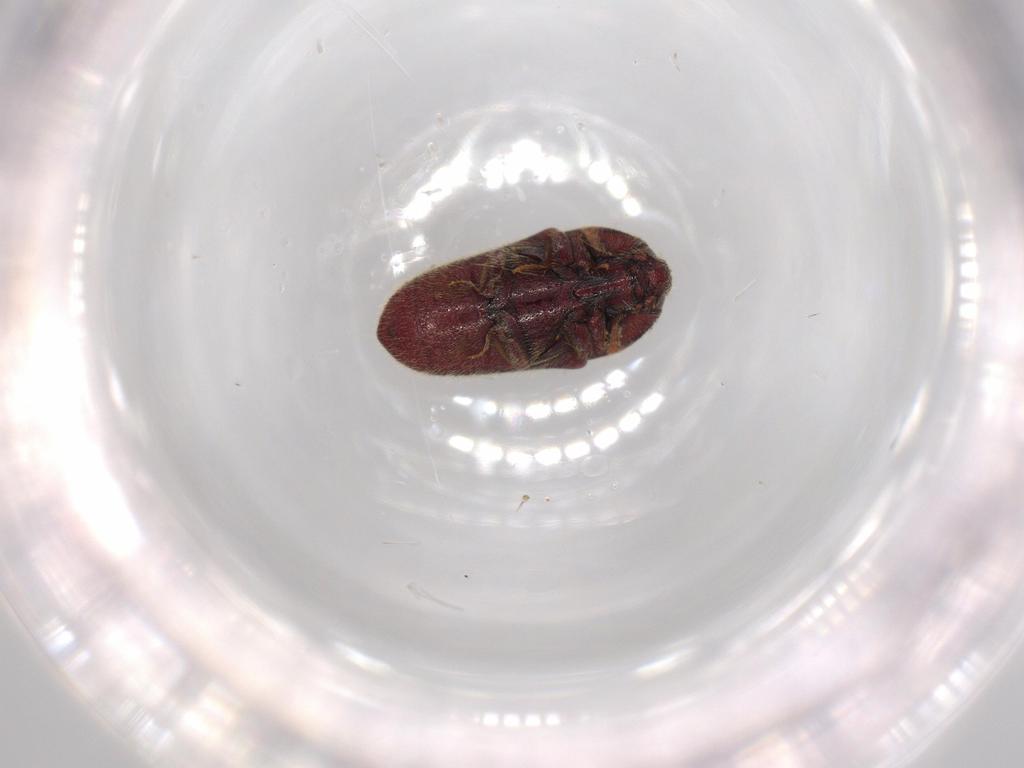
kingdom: Animalia
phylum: Arthropoda
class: Insecta
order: Coleoptera
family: Throscidae
